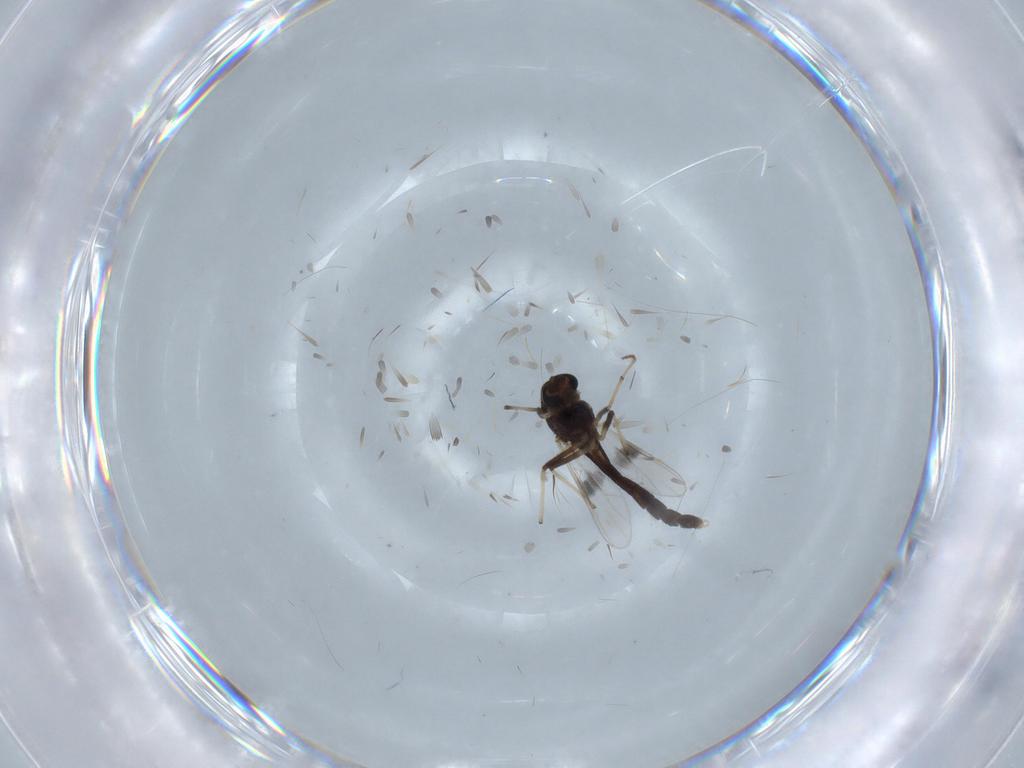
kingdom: Animalia
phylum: Arthropoda
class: Insecta
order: Diptera
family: Chironomidae
